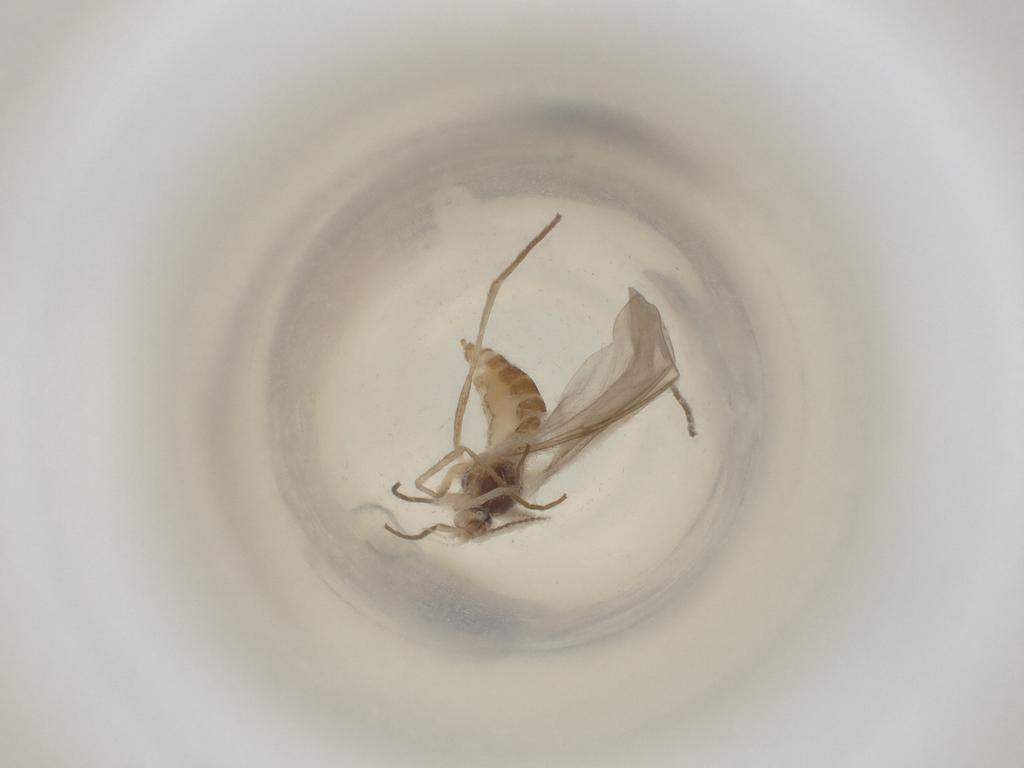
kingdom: Animalia
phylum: Arthropoda
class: Insecta
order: Diptera
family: Cecidomyiidae
